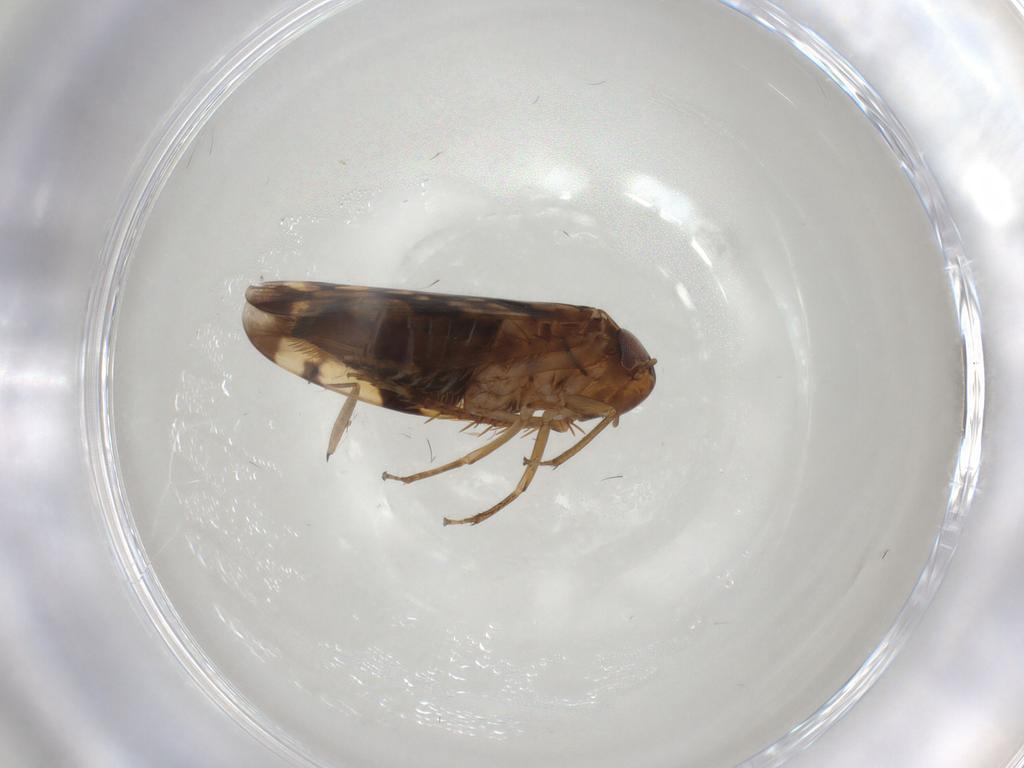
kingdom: Animalia
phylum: Arthropoda
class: Insecta
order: Hemiptera
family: Cicadellidae
